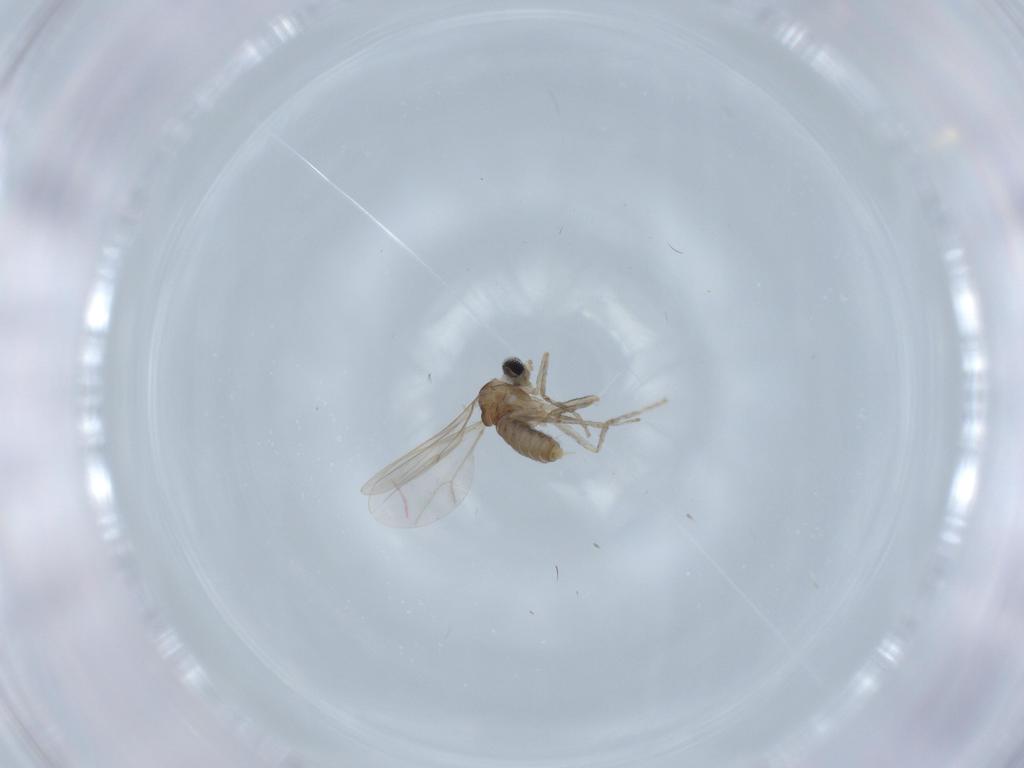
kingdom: Animalia
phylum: Arthropoda
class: Insecta
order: Diptera
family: Cecidomyiidae
